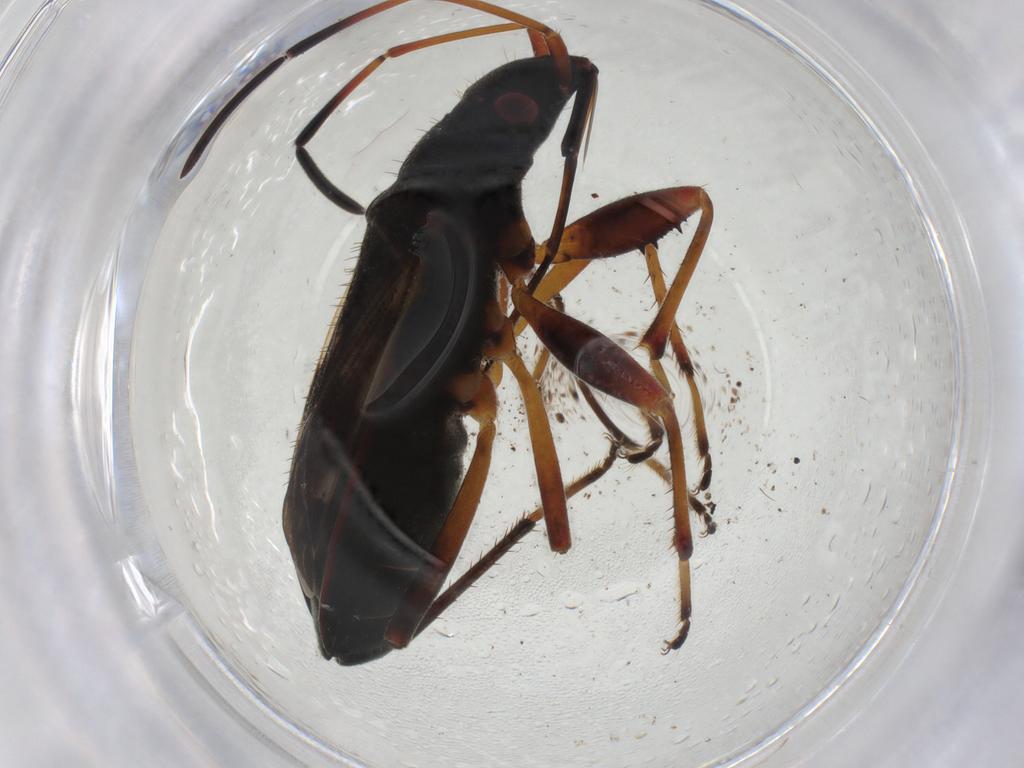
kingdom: Animalia
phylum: Arthropoda
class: Insecta
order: Hemiptera
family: Rhyparochromidae
